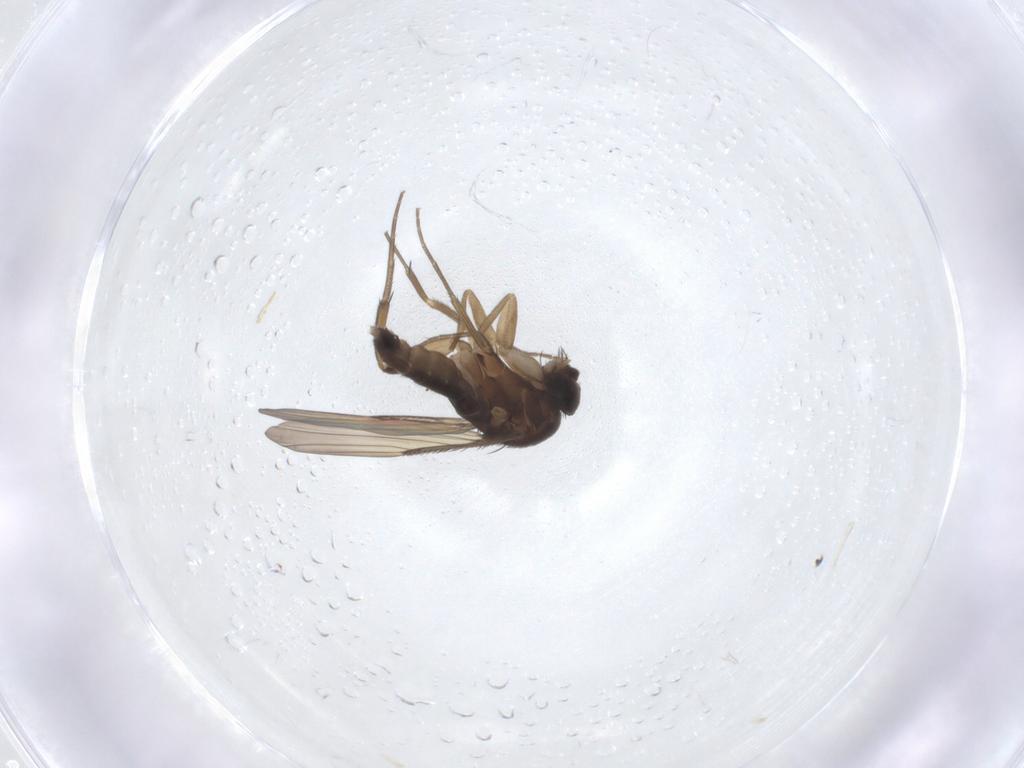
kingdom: Animalia
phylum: Arthropoda
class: Insecta
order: Diptera
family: Phoridae
